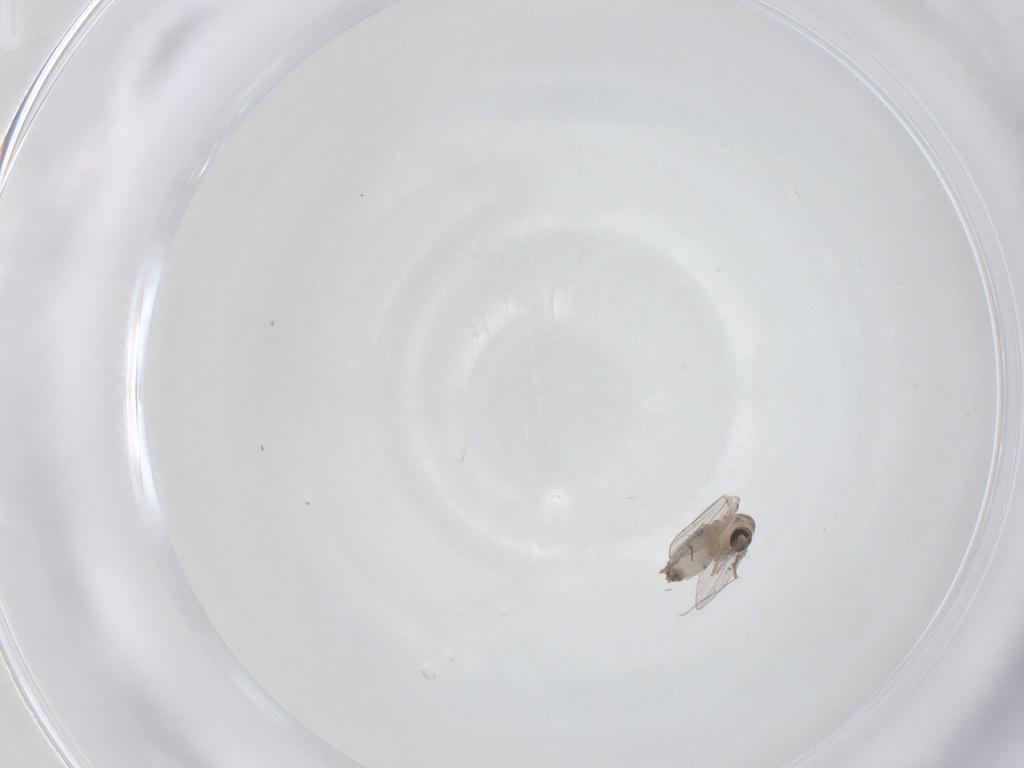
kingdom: Animalia
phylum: Arthropoda
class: Insecta
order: Diptera
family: Psychodidae
